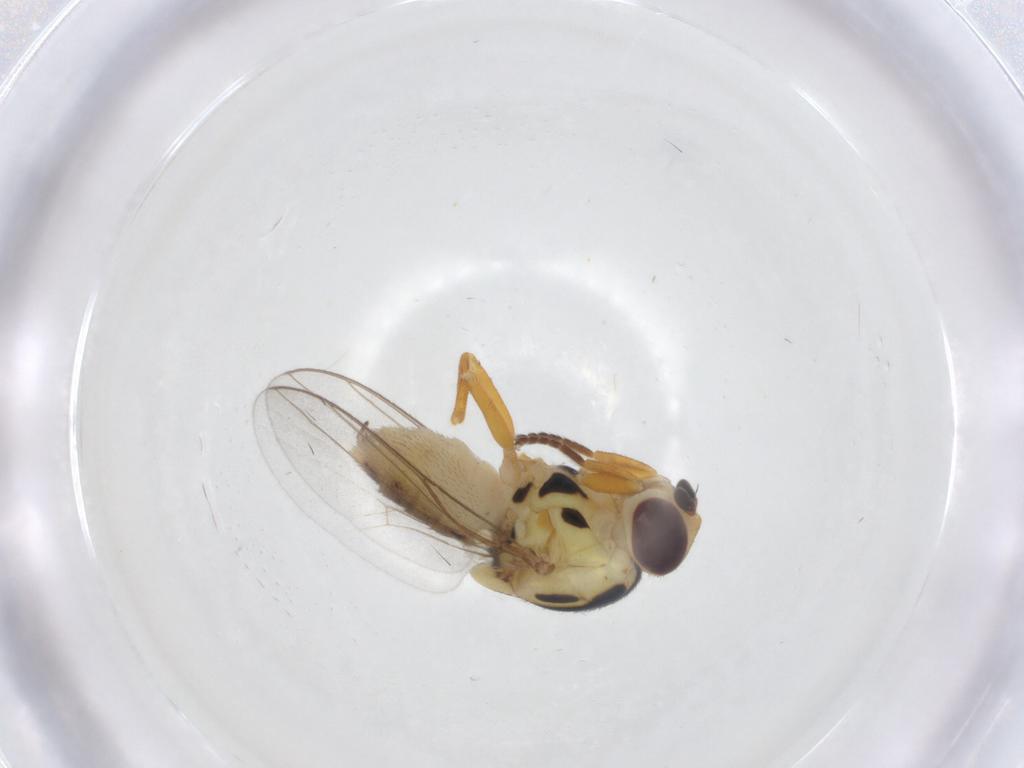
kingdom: Animalia
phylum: Arthropoda
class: Insecta
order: Diptera
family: Chloropidae
